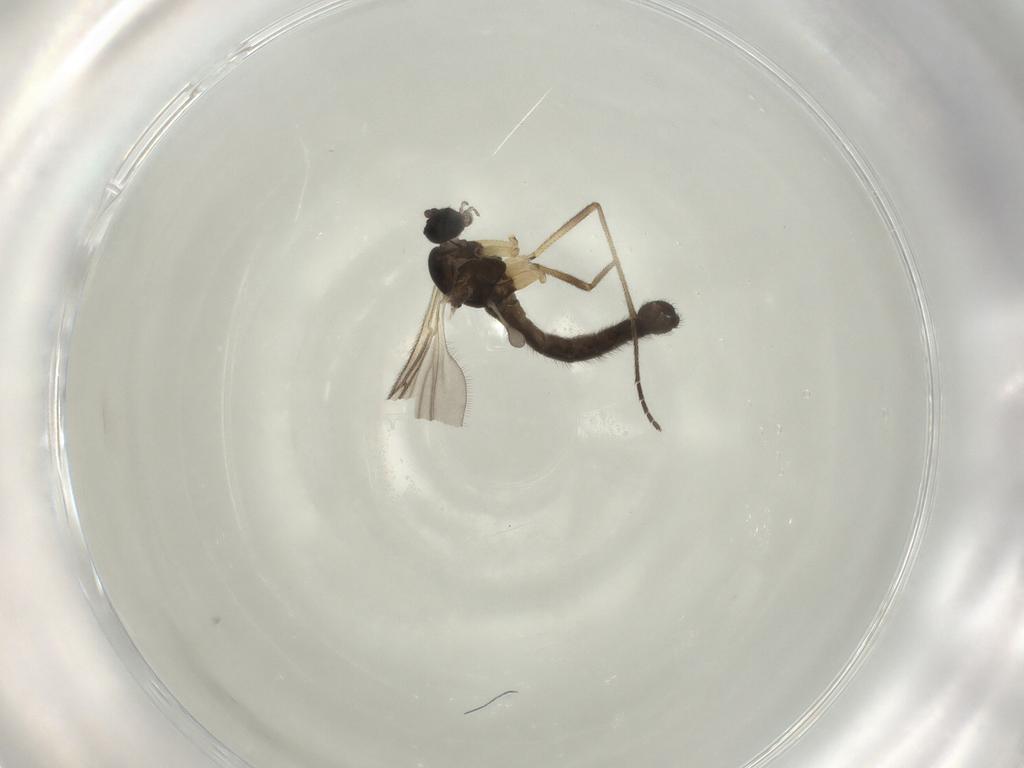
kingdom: Animalia
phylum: Arthropoda
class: Insecta
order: Diptera
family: Sciaridae
